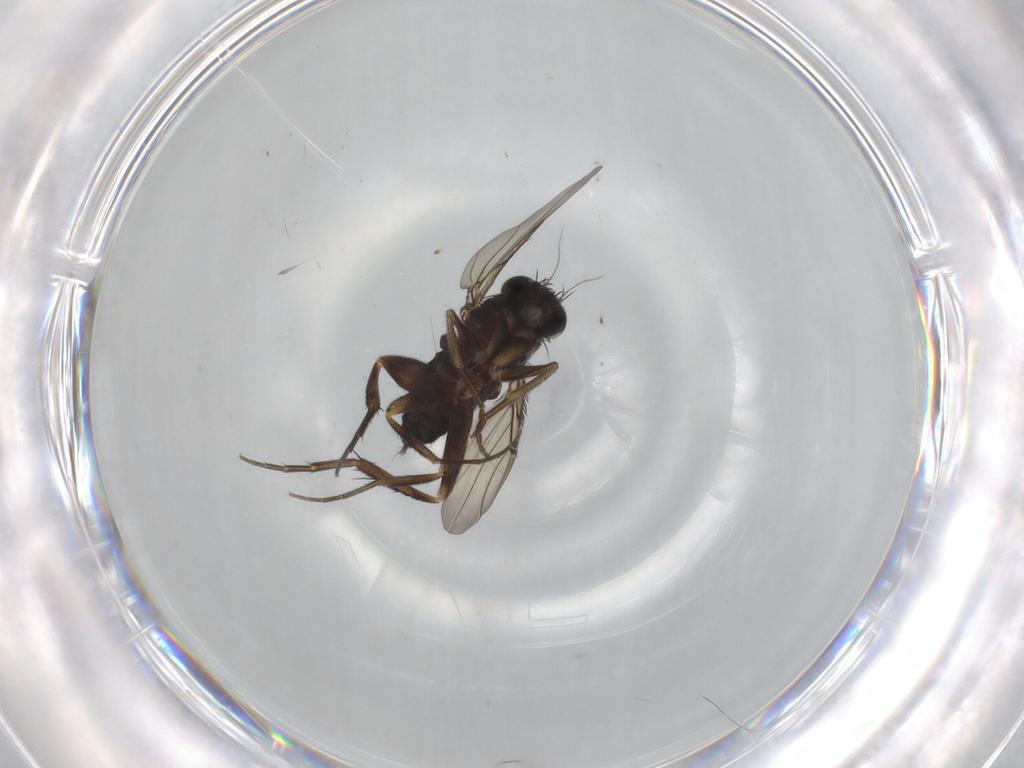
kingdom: Animalia
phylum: Arthropoda
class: Insecta
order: Diptera
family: Phoridae
